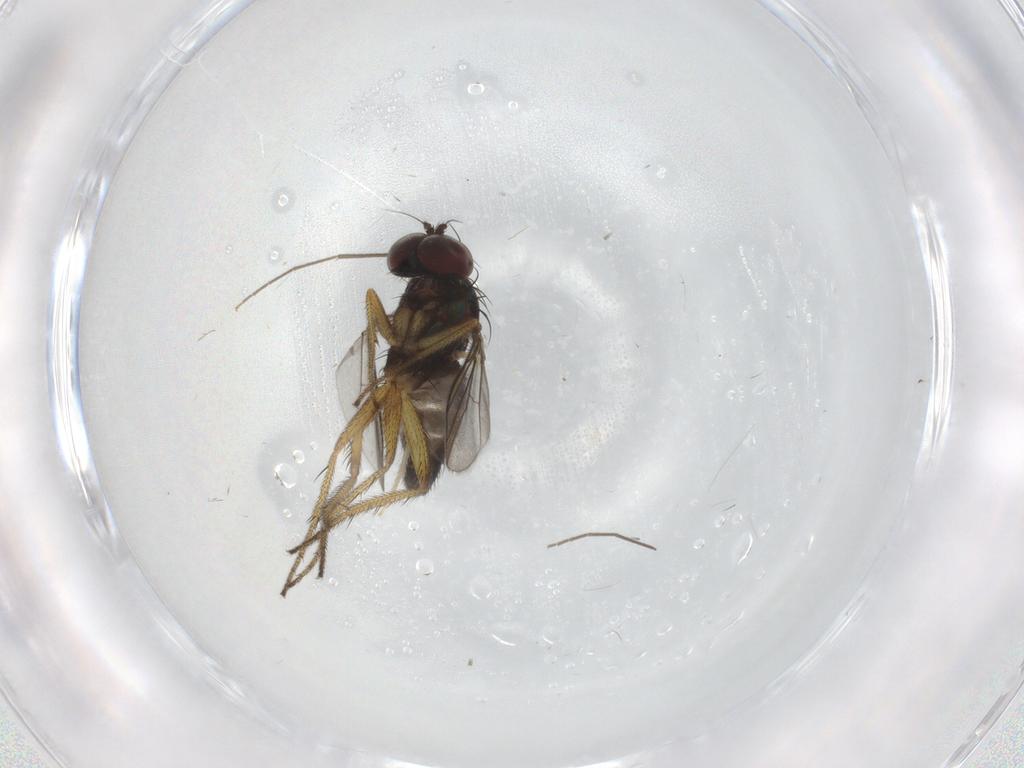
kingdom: Animalia
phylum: Arthropoda
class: Insecta
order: Diptera
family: Chironomidae
